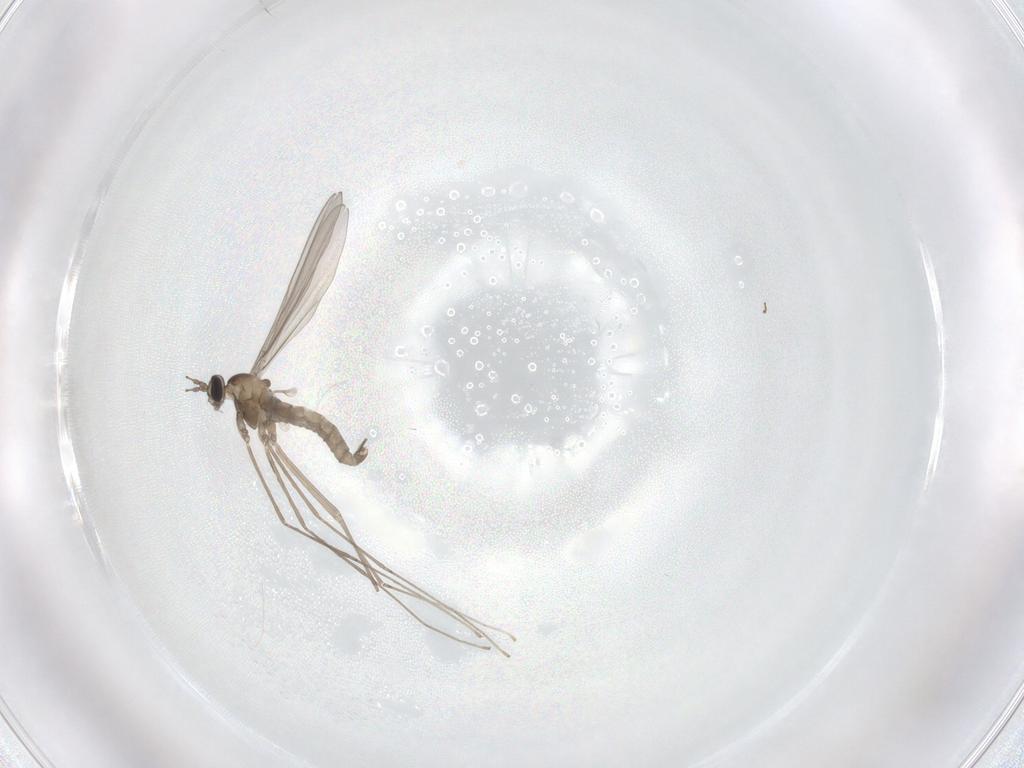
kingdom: Animalia
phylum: Arthropoda
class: Insecta
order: Diptera
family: Cecidomyiidae
